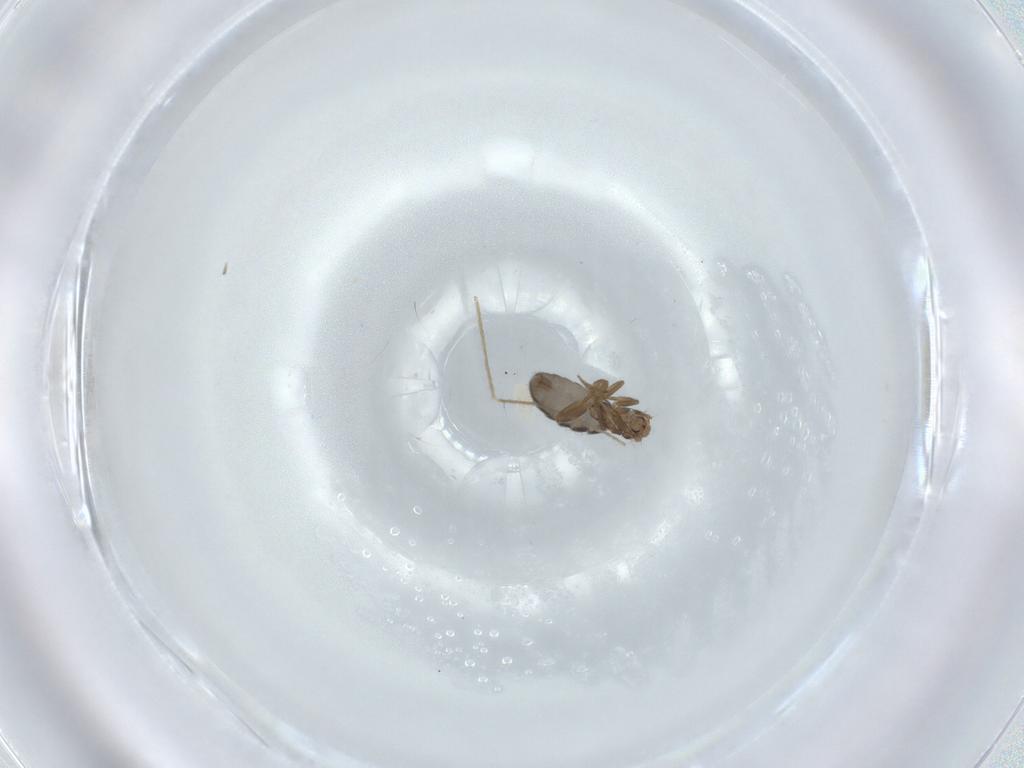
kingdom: Animalia
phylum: Arthropoda
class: Insecta
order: Diptera
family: Phoridae
